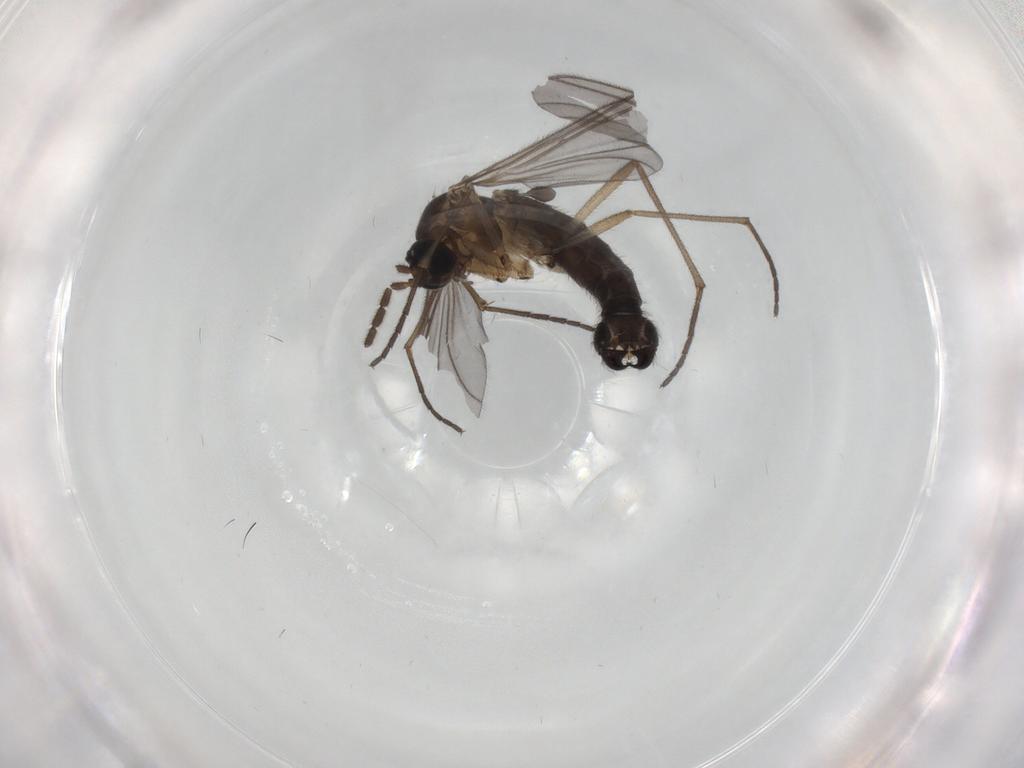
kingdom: Animalia
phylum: Arthropoda
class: Insecta
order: Diptera
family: Sciaridae
